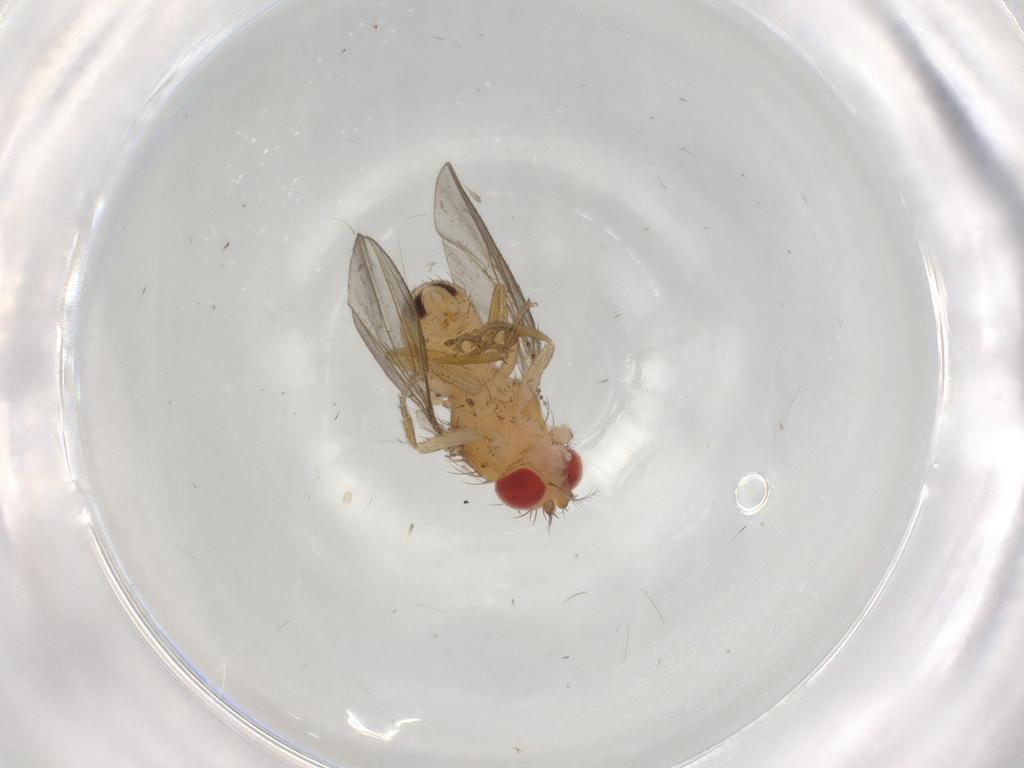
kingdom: Animalia
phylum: Arthropoda
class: Insecta
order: Diptera
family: Drosophilidae
